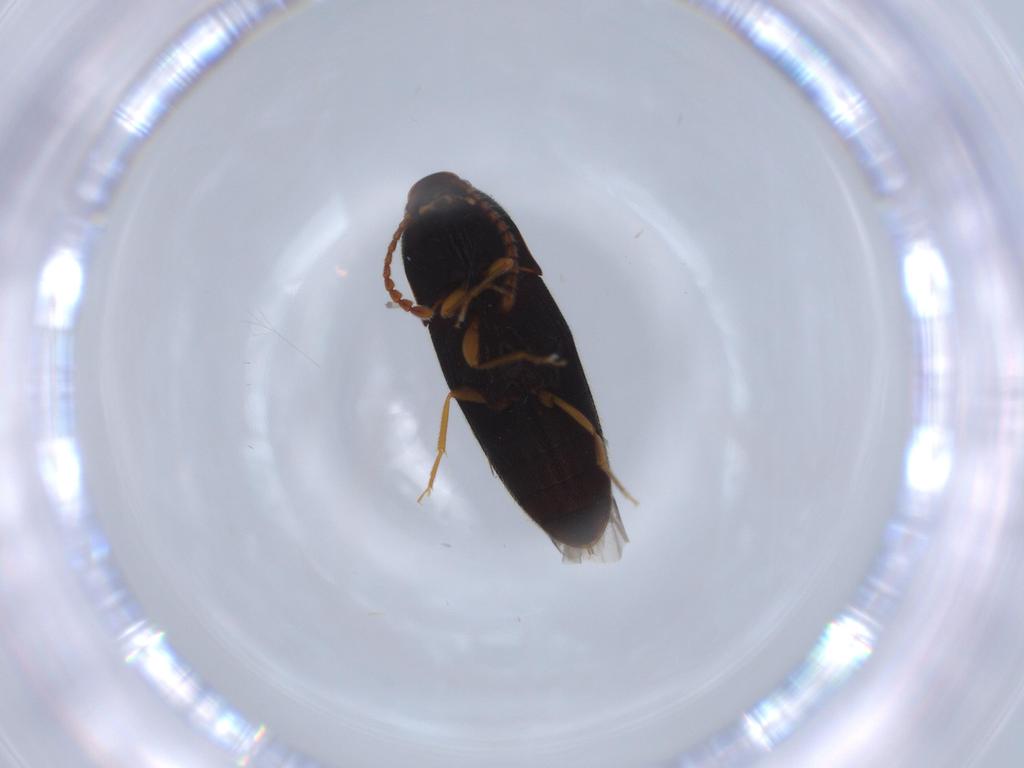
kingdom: Animalia
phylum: Arthropoda
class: Insecta
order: Coleoptera
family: Elateridae
